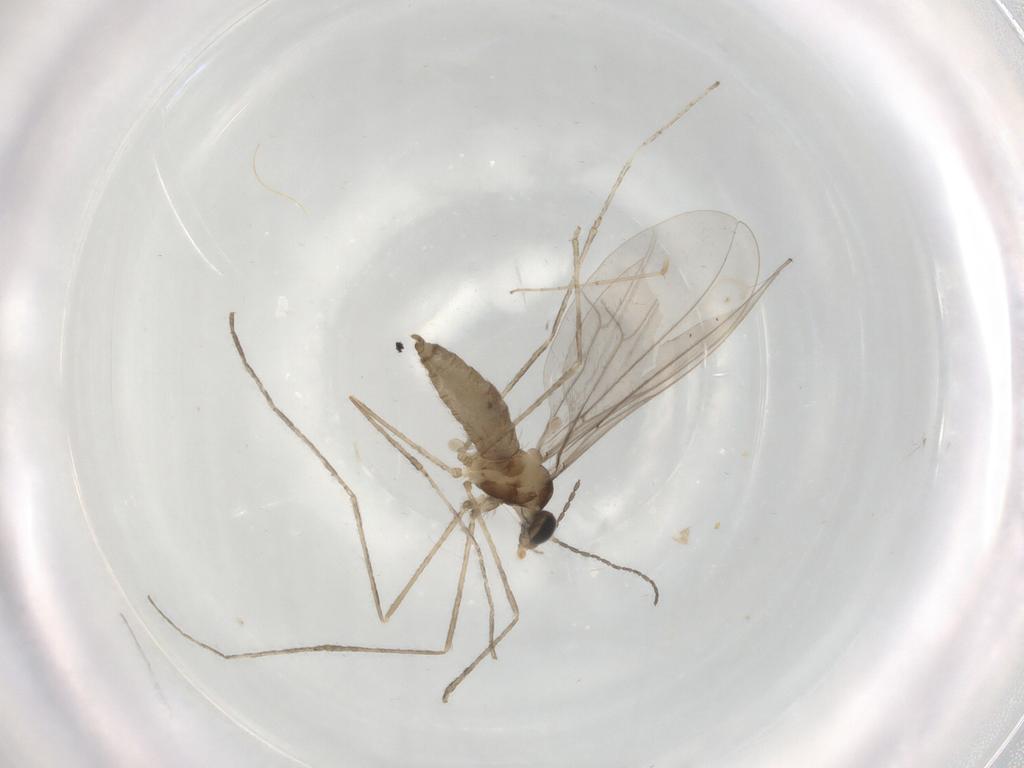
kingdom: Animalia
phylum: Arthropoda
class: Insecta
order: Diptera
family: Cecidomyiidae
